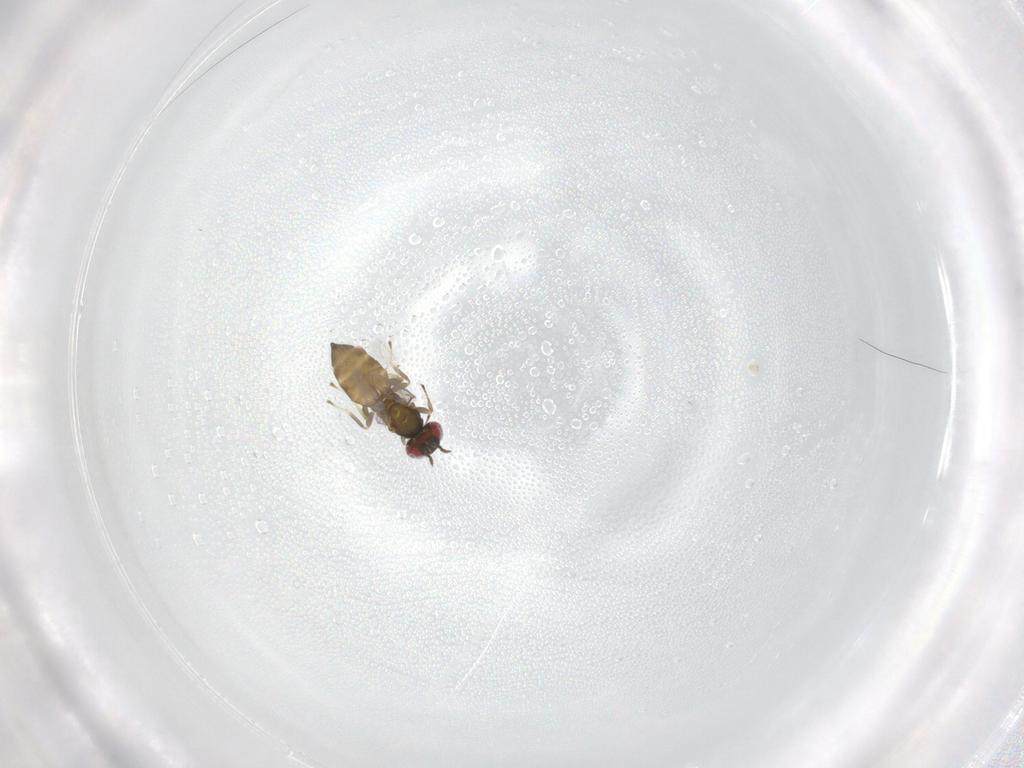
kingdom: Animalia
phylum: Arthropoda
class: Insecta
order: Hymenoptera
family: Eulophidae
